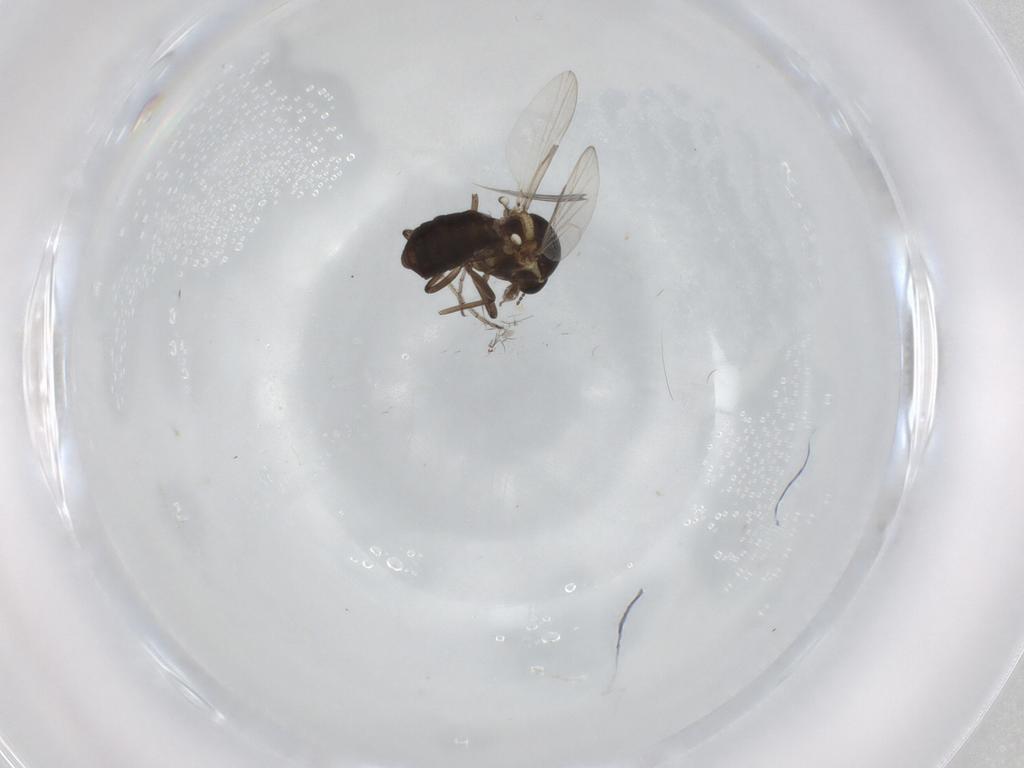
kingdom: Animalia
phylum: Arthropoda
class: Insecta
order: Diptera
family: Ceratopogonidae
